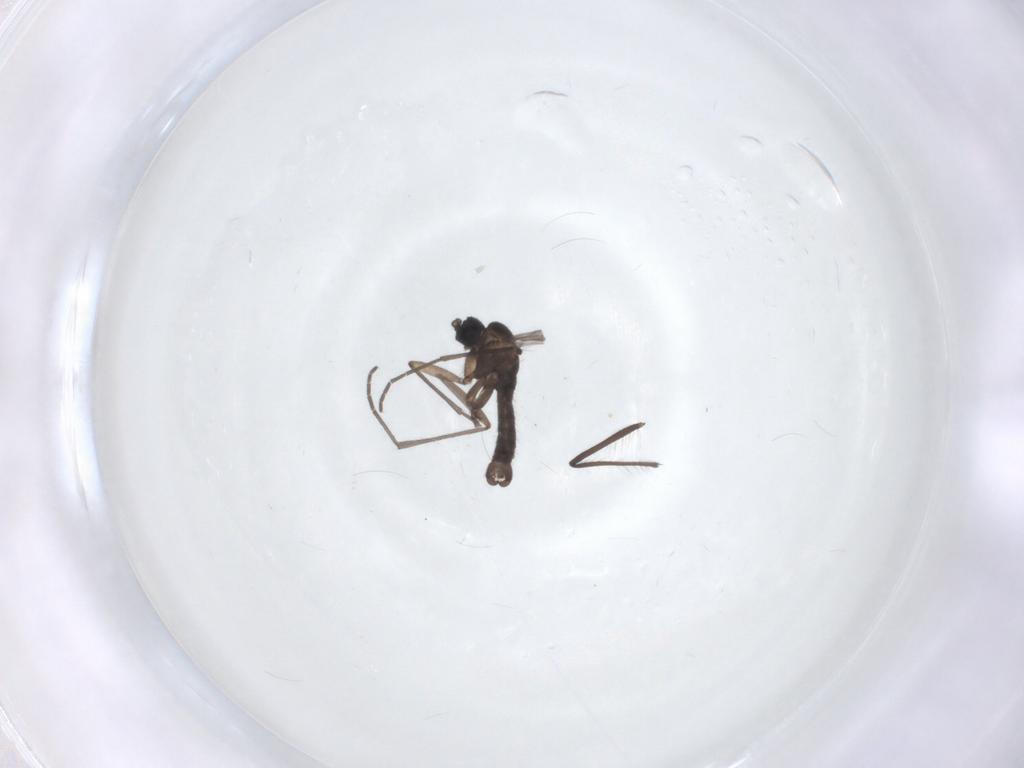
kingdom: Animalia
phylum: Arthropoda
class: Insecta
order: Diptera
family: Sciaridae
